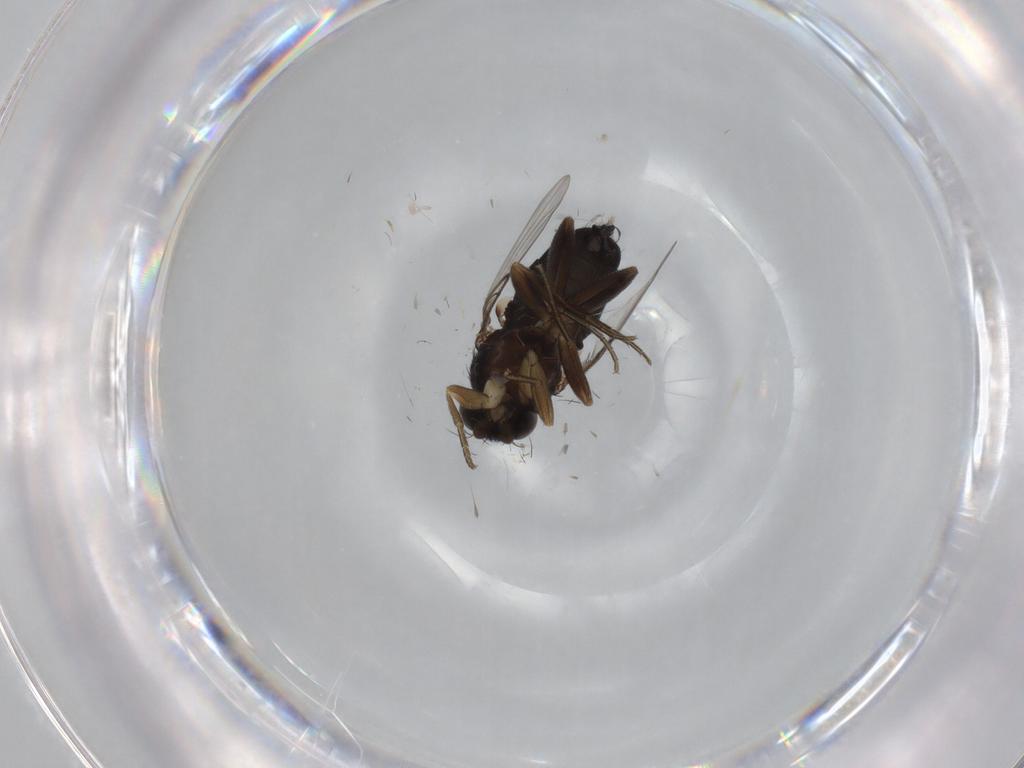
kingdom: Animalia
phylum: Arthropoda
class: Insecta
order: Diptera
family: Phoridae
